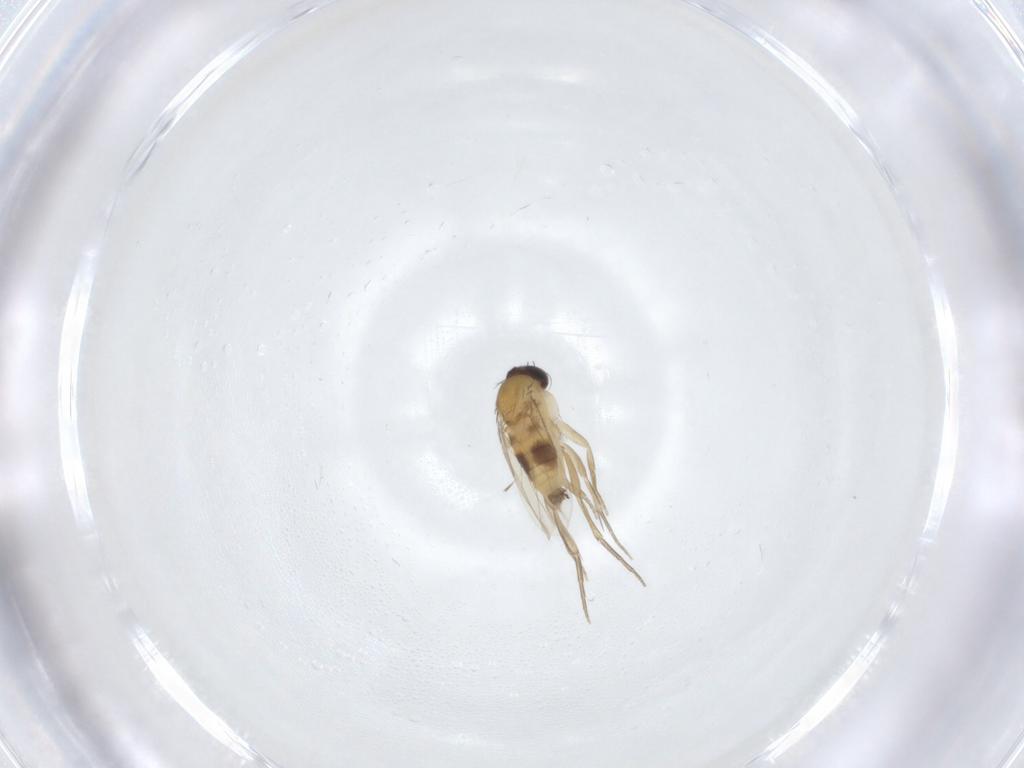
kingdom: Animalia
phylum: Arthropoda
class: Insecta
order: Diptera
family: Phoridae
